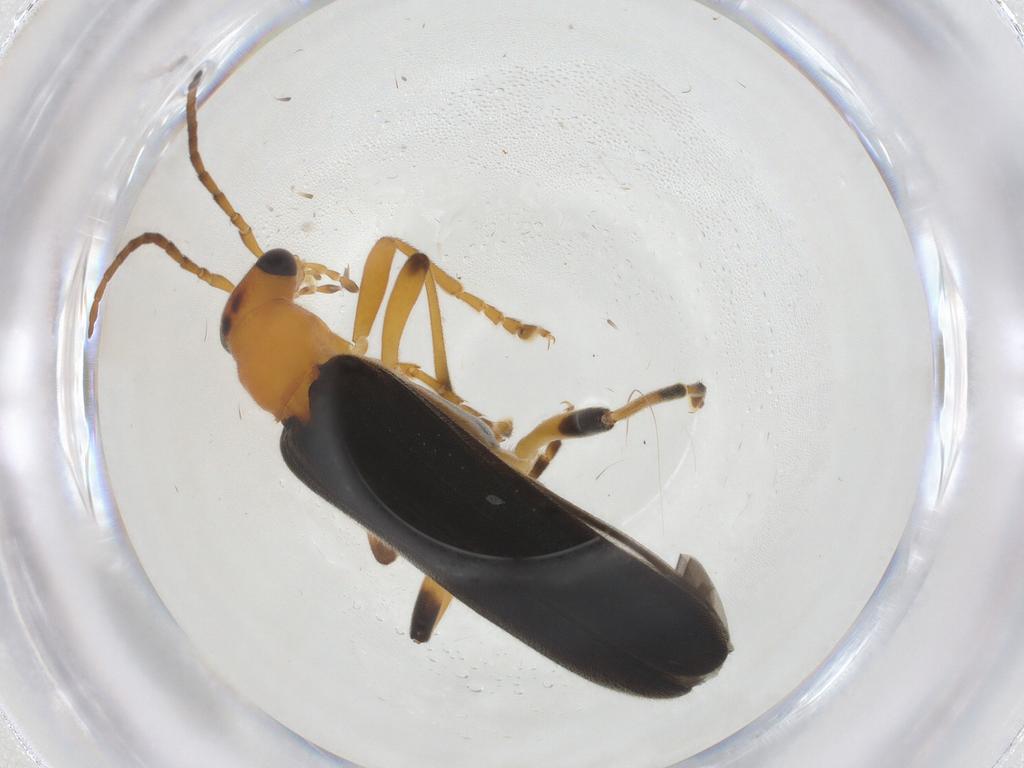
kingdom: Animalia
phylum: Arthropoda
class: Insecta
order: Coleoptera
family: Oedemeridae
